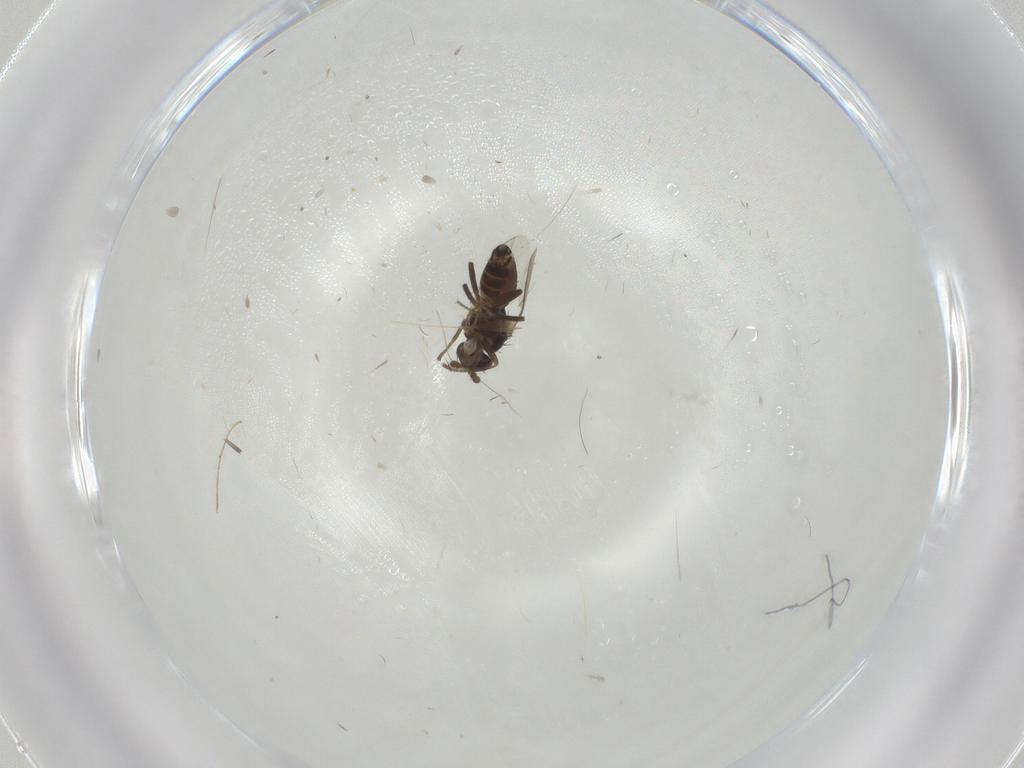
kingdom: Animalia
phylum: Arthropoda
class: Insecta
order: Diptera
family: Sphaeroceridae
